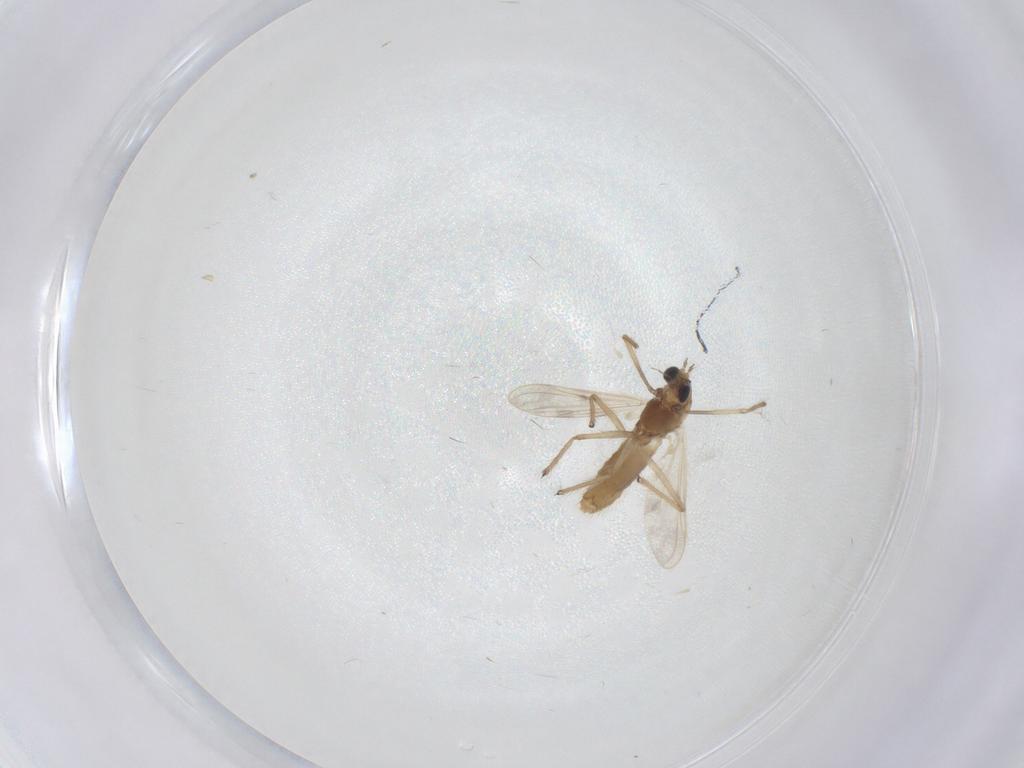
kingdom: Animalia
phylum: Arthropoda
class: Insecta
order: Diptera
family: Chironomidae
